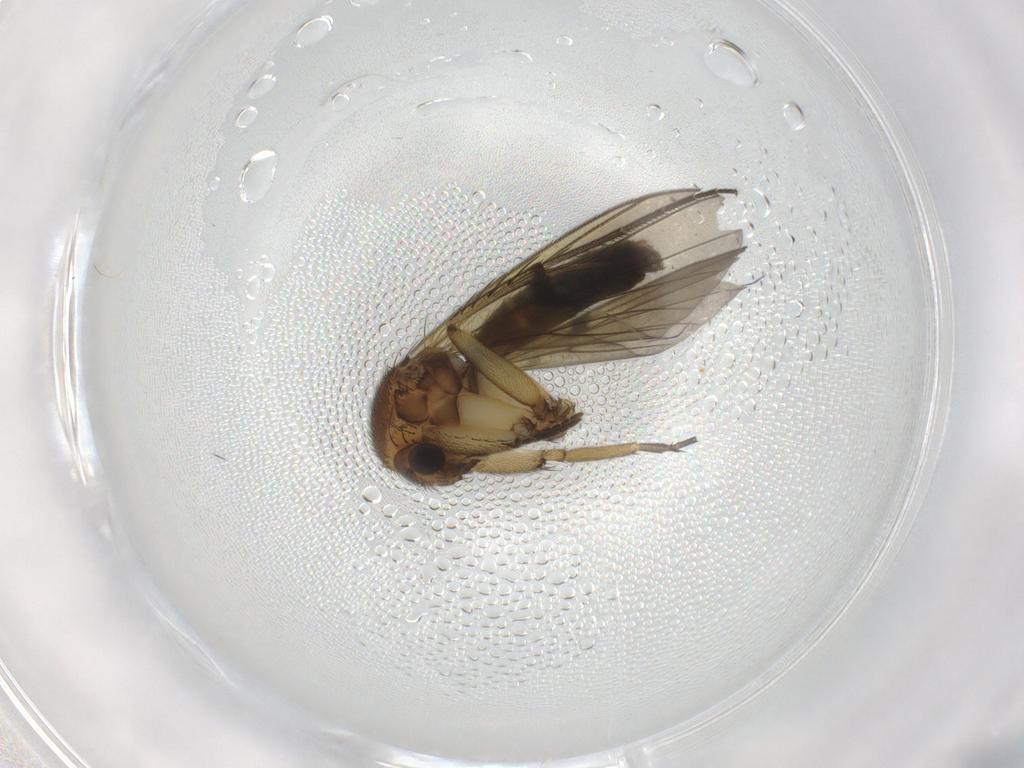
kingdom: Animalia
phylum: Arthropoda
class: Insecta
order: Diptera
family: Chironomidae
